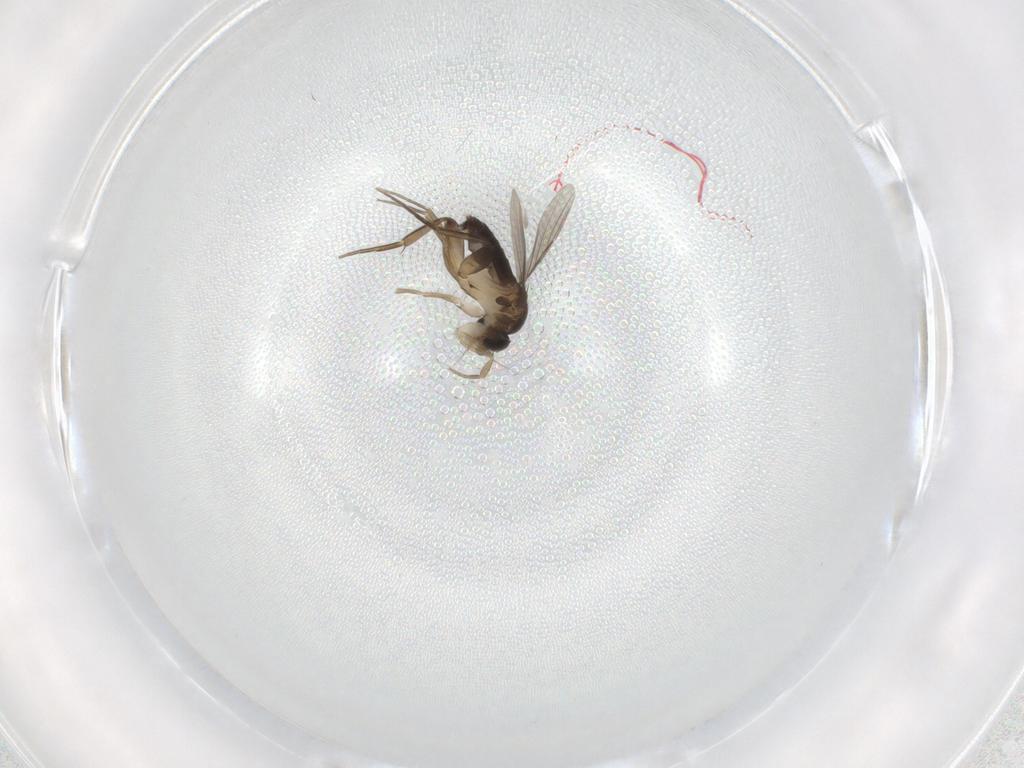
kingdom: Animalia
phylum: Arthropoda
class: Insecta
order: Diptera
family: Phoridae
